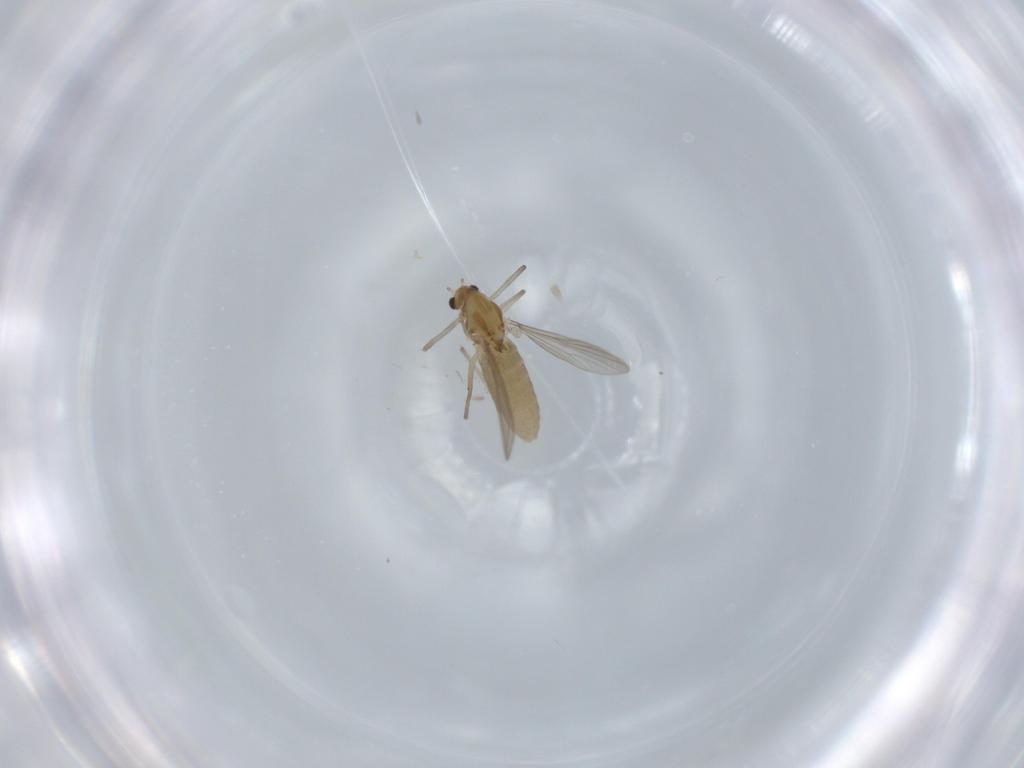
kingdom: Animalia
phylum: Arthropoda
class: Insecta
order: Diptera
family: Chironomidae
